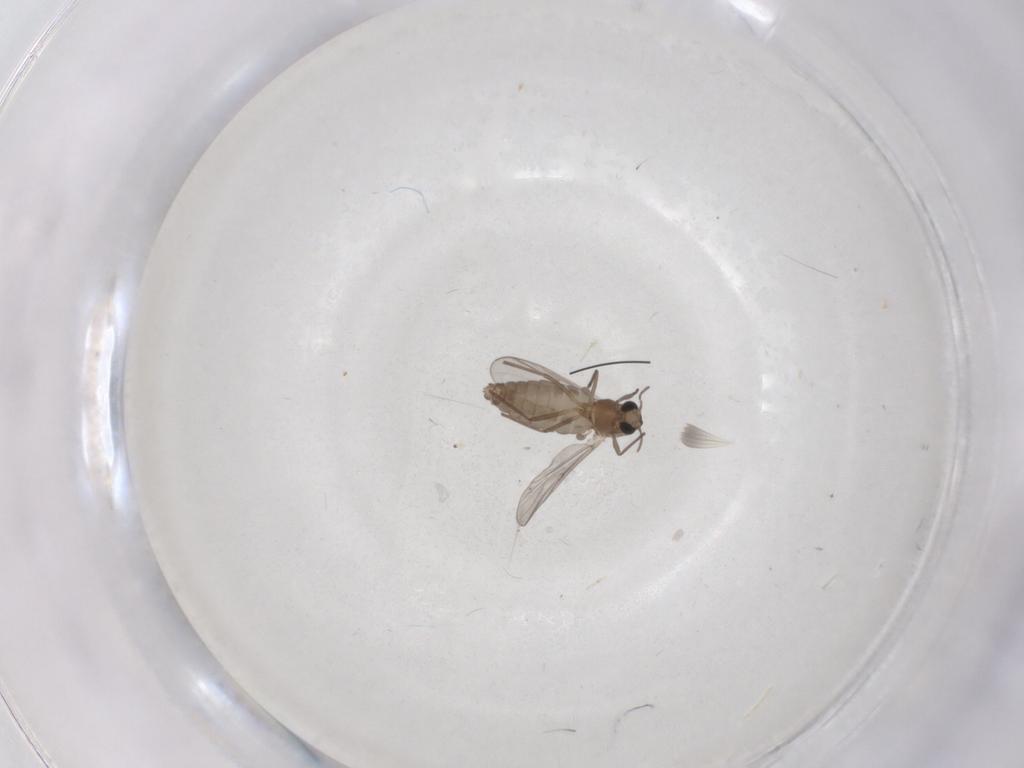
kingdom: Animalia
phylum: Arthropoda
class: Insecta
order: Diptera
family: Chironomidae
